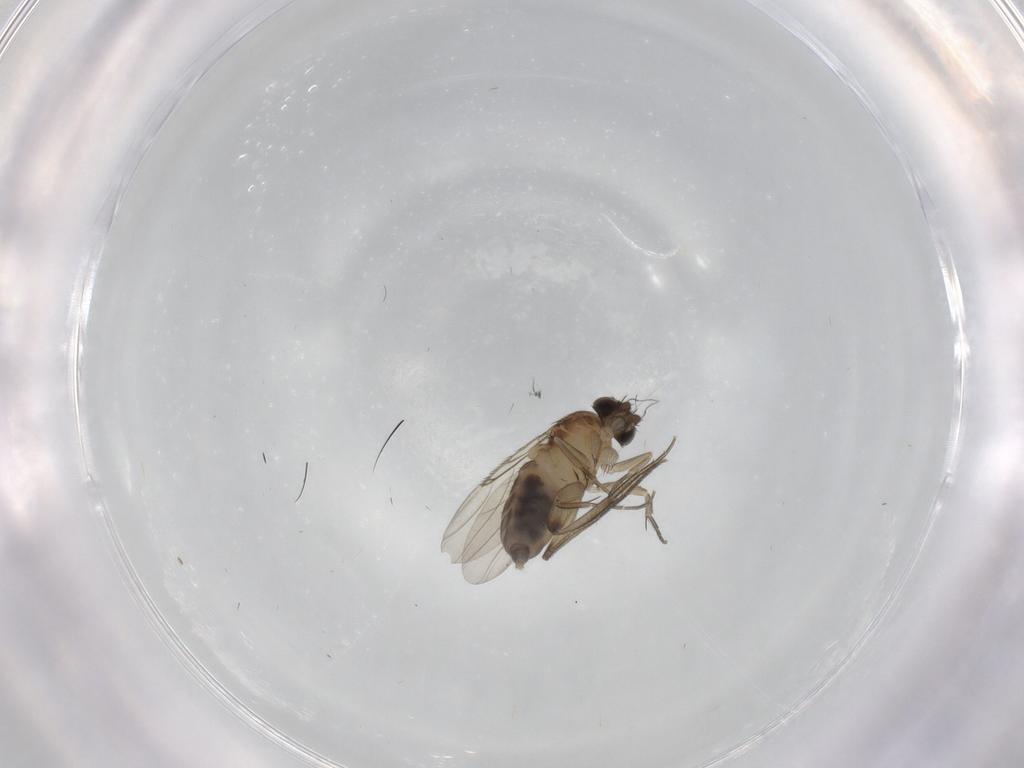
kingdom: Animalia
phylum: Arthropoda
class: Insecta
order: Diptera
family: Phoridae
